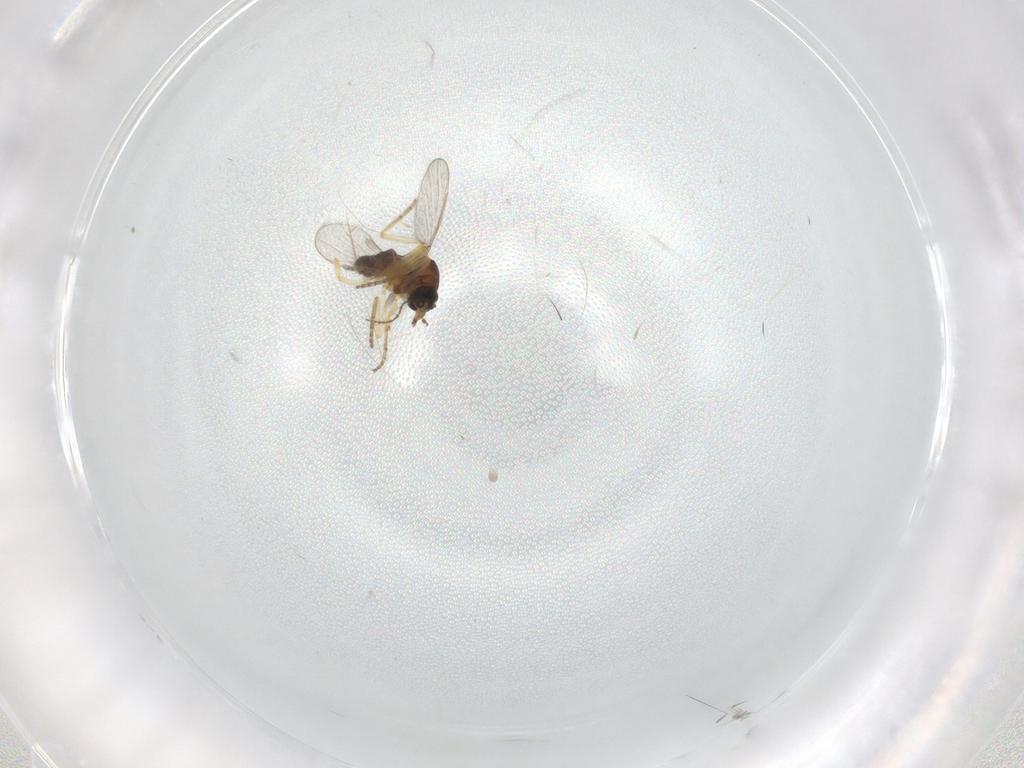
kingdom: Animalia
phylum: Arthropoda
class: Insecta
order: Diptera
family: Ceratopogonidae
